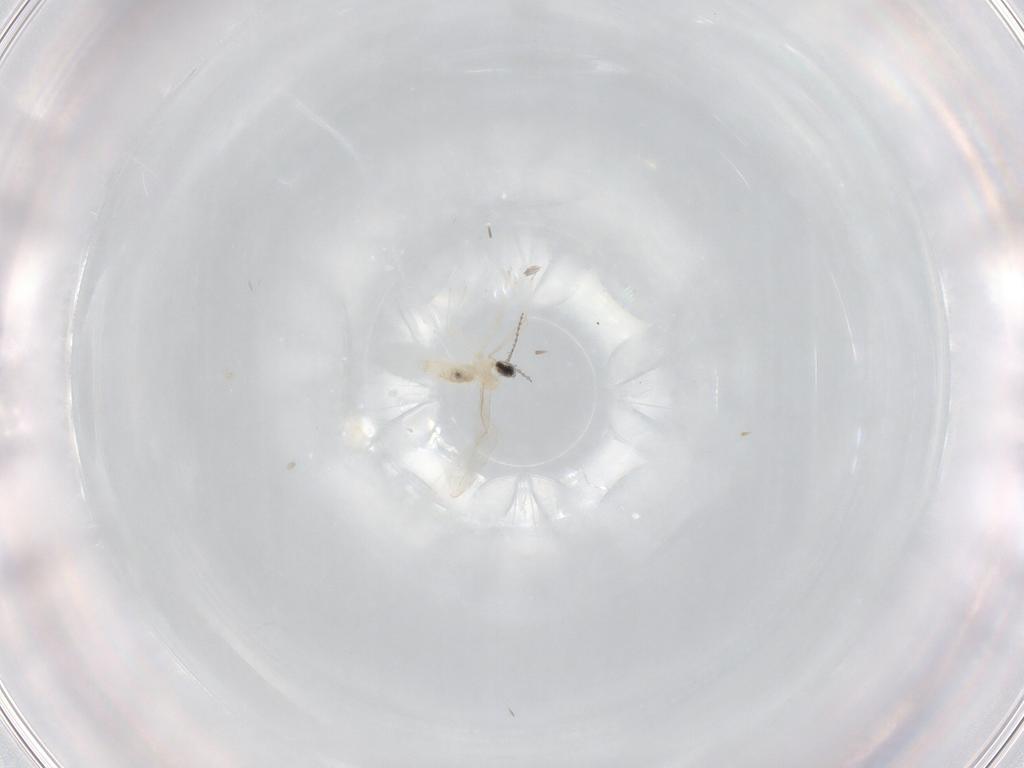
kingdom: Animalia
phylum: Arthropoda
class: Insecta
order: Diptera
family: Cecidomyiidae
